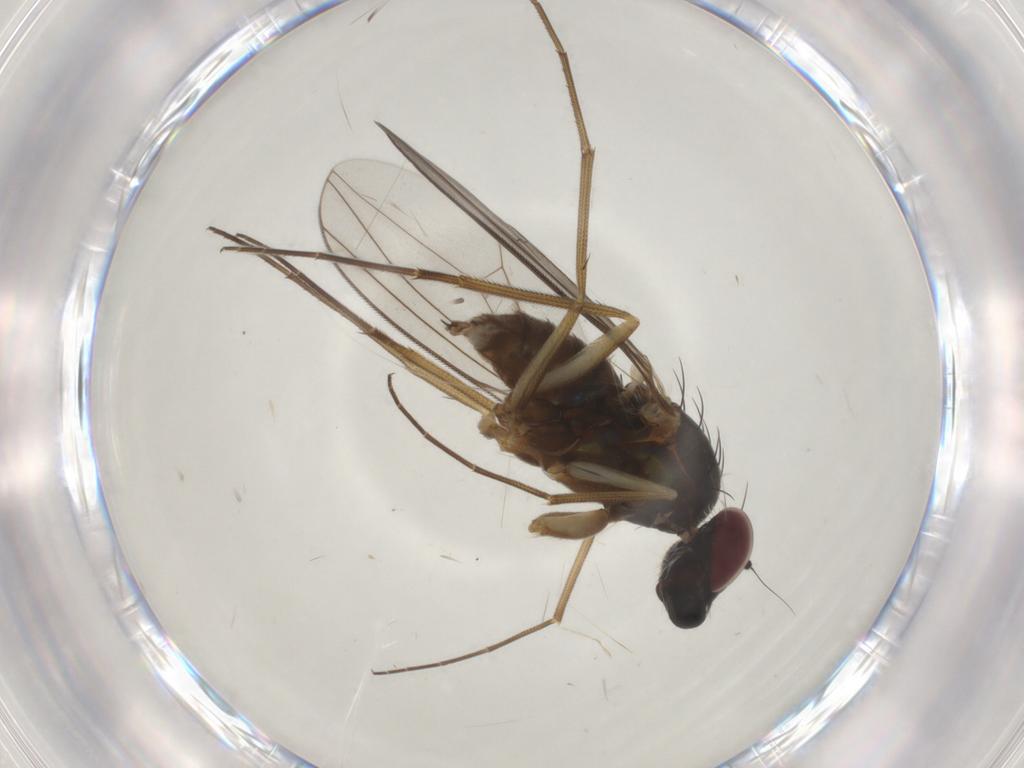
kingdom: Animalia
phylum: Arthropoda
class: Insecta
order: Diptera
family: Dolichopodidae
